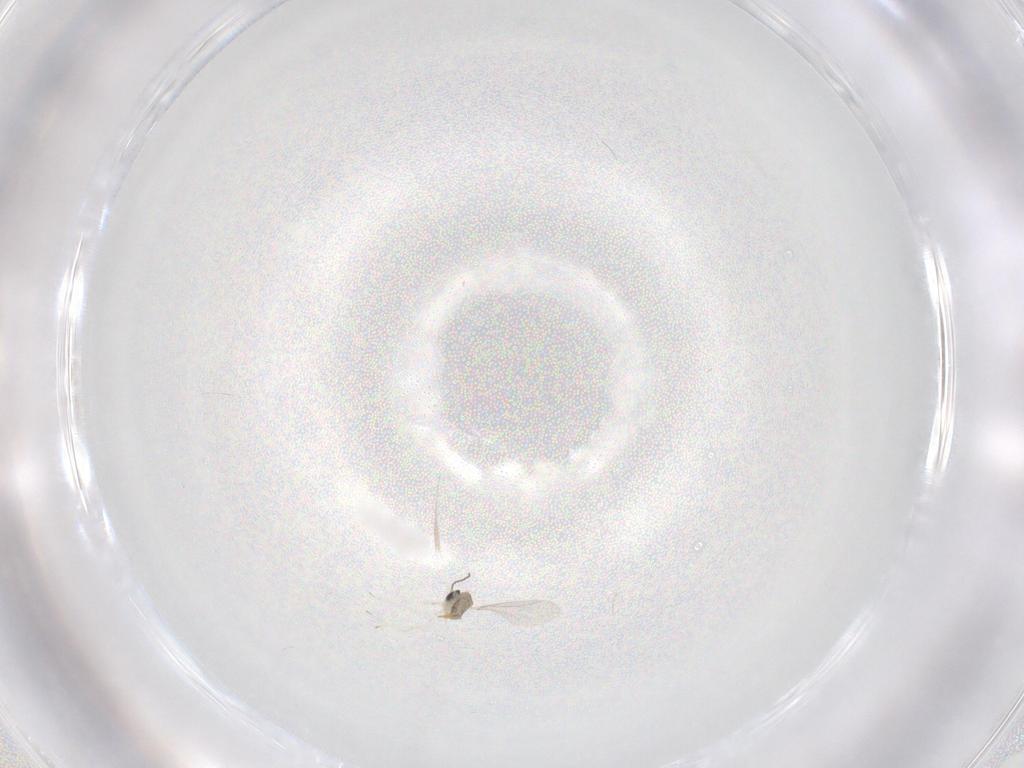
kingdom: Animalia
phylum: Arthropoda
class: Insecta
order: Diptera
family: Cecidomyiidae
